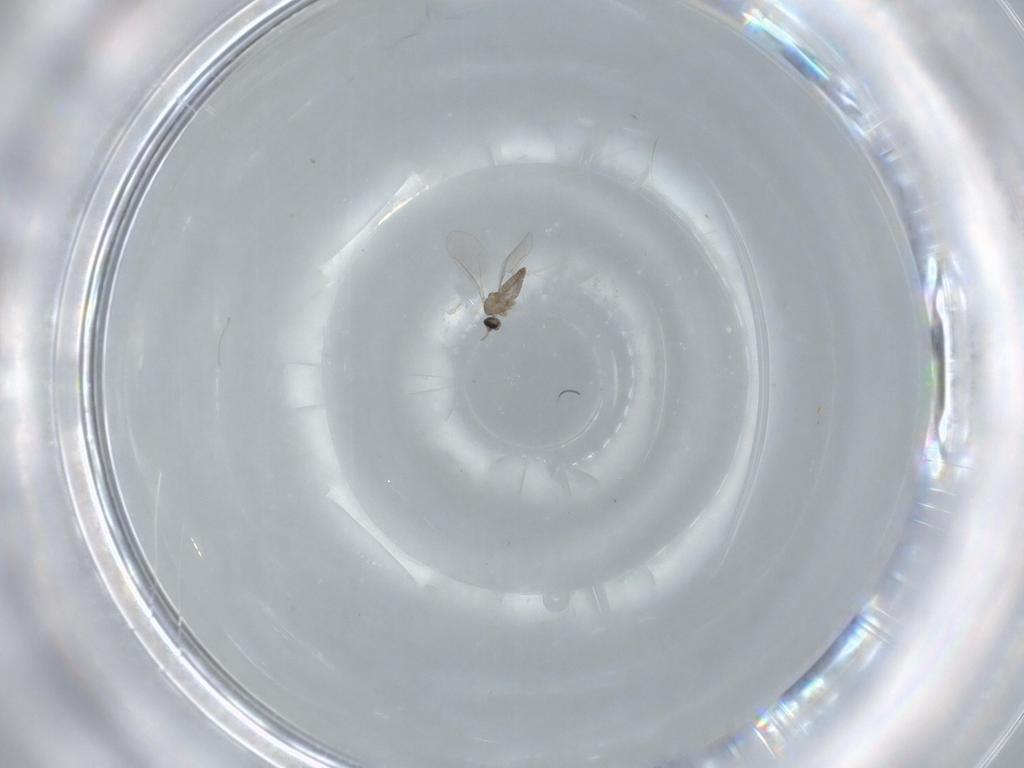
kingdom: Animalia
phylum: Arthropoda
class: Insecta
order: Diptera
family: Cecidomyiidae
